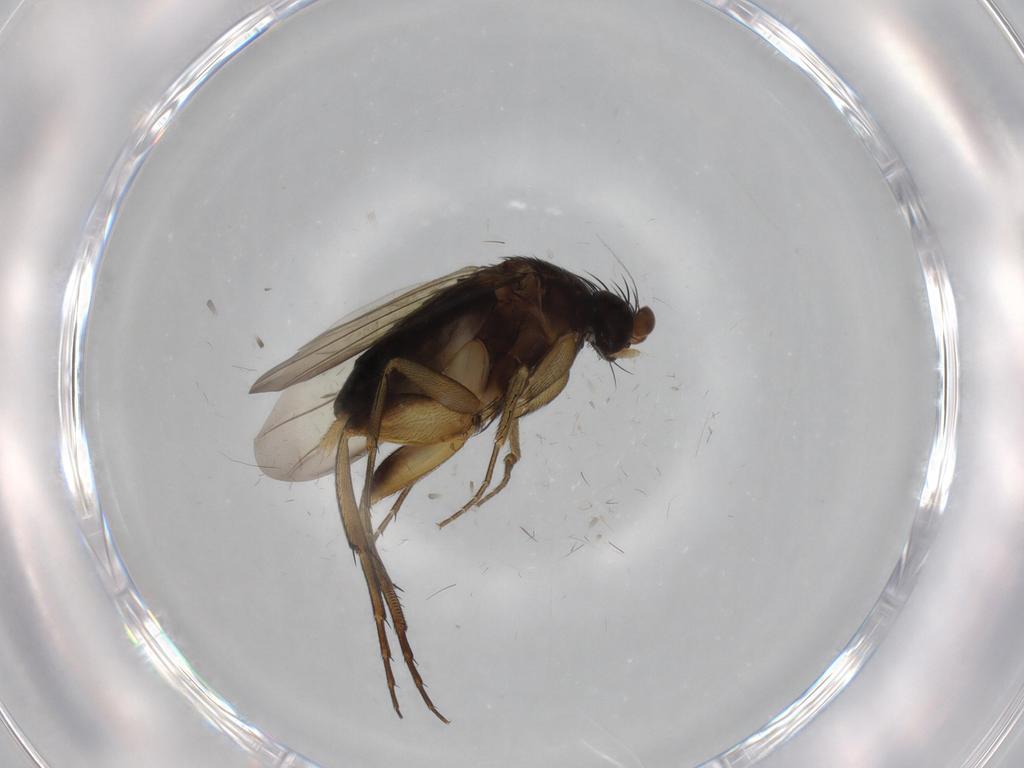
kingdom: Animalia
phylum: Arthropoda
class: Insecta
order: Diptera
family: Phoridae
